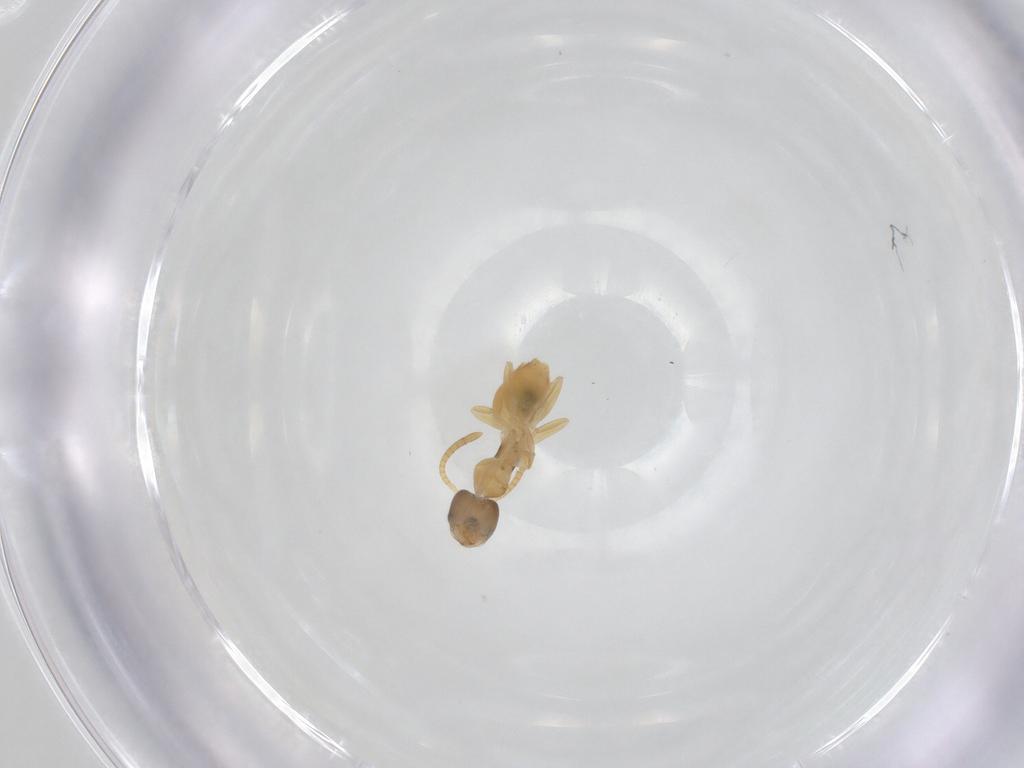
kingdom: Animalia
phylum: Arthropoda
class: Insecta
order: Hymenoptera
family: Formicidae
